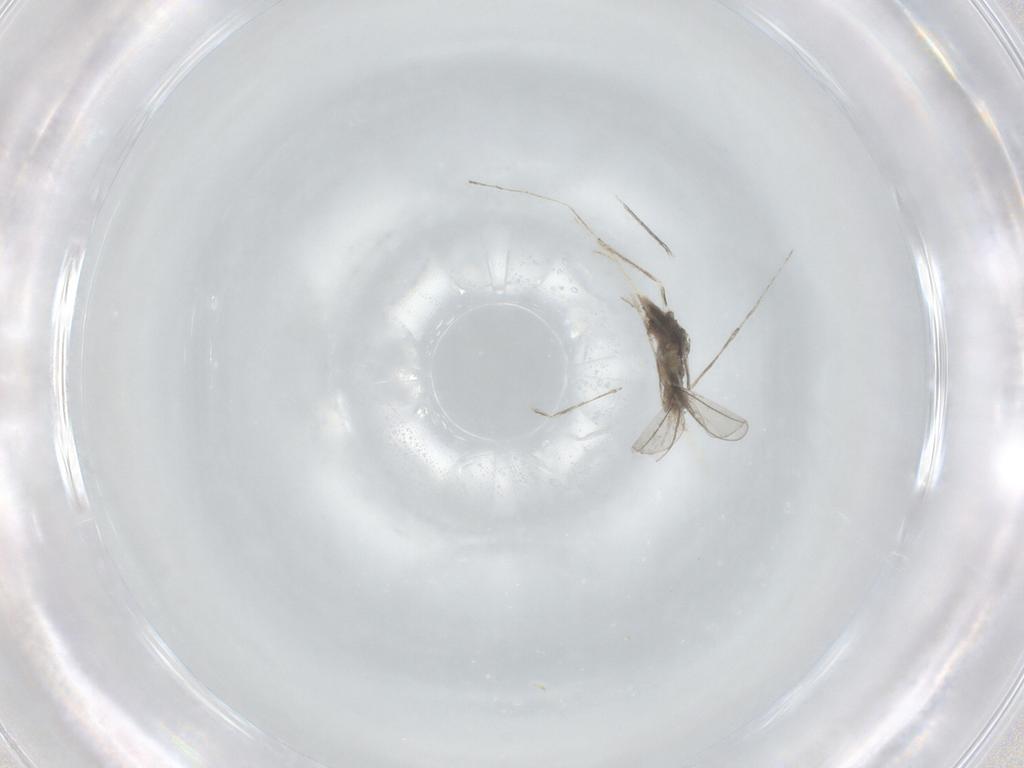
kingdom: Animalia
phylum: Arthropoda
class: Insecta
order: Diptera
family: Cecidomyiidae
